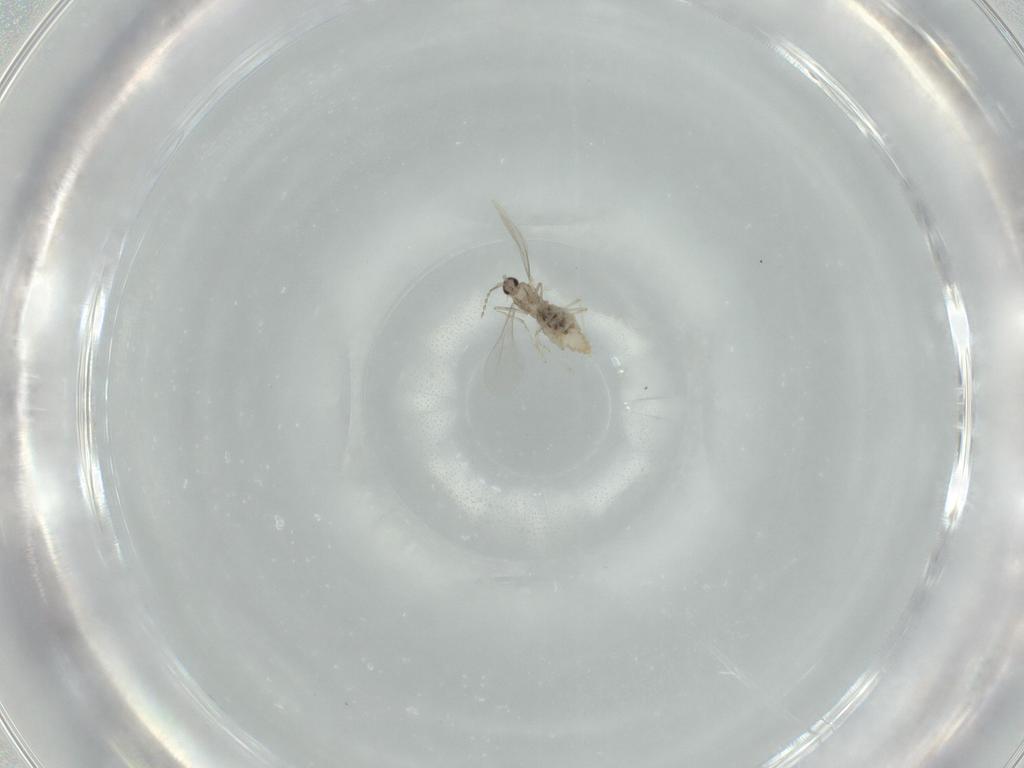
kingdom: Animalia
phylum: Arthropoda
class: Insecta
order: Diptera
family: Cecidomyiidae
